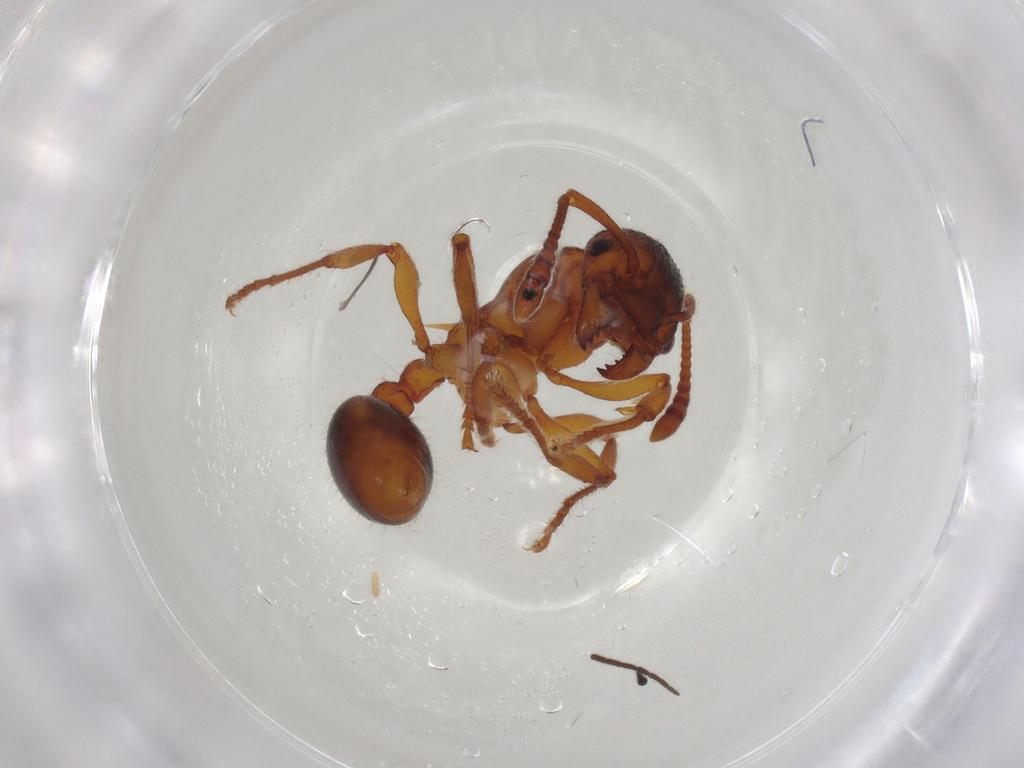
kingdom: Animalia
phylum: Arthropoda
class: Insecta
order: Hymenoptera
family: Formicidae
